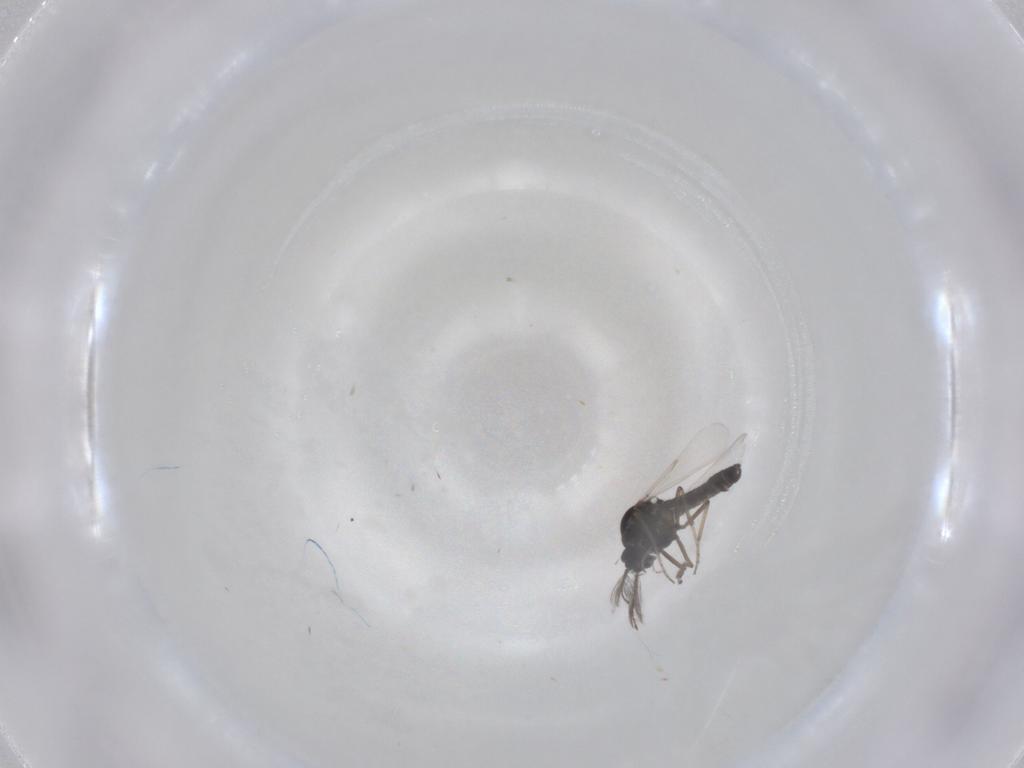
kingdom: Animalia
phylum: Arthropoda
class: Insecta
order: Diptera
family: Ceratopogonidae
